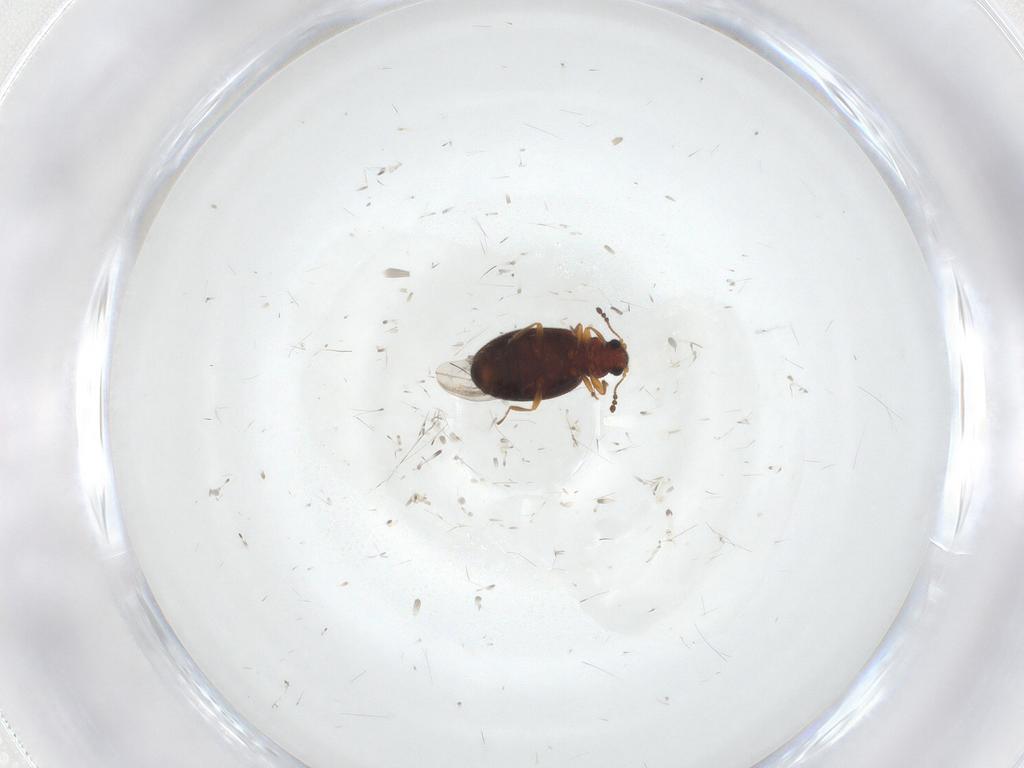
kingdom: Animalia
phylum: Arthropoda
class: Insecta
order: Coleoptera
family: Latridiidae
